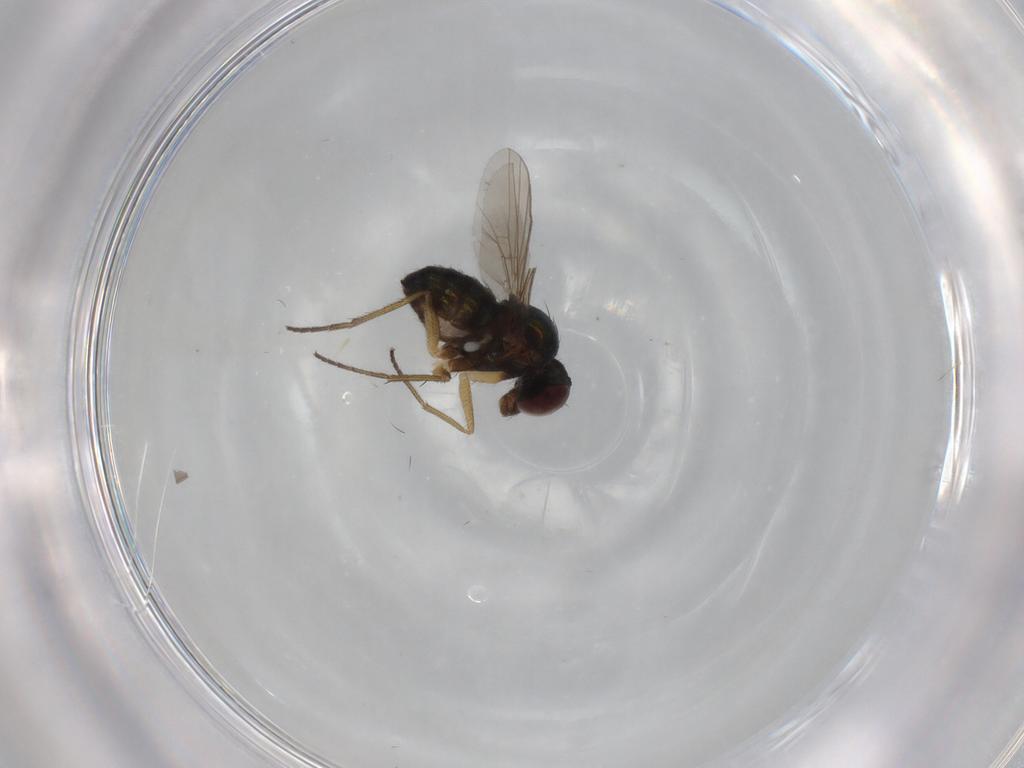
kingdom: Animalia
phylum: Arthropoda
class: Insecta
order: Diptera
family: Dolichopodidae
